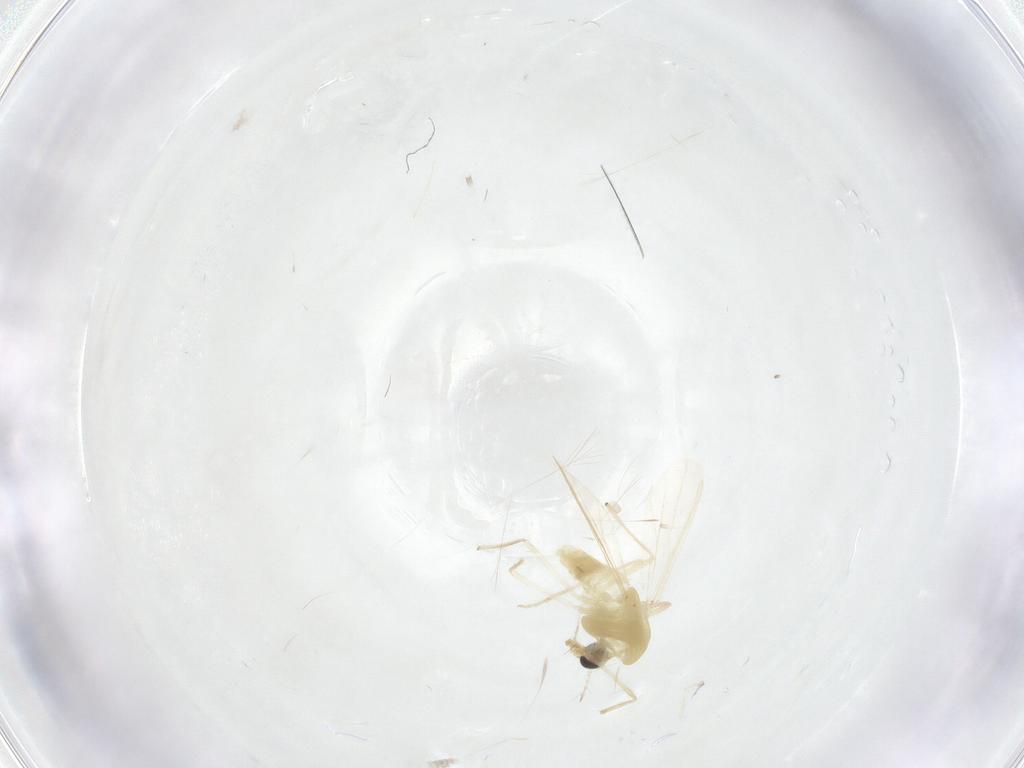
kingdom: Animalia
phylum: Arthropoda
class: Insecta
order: Diptera
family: Chironomidae
